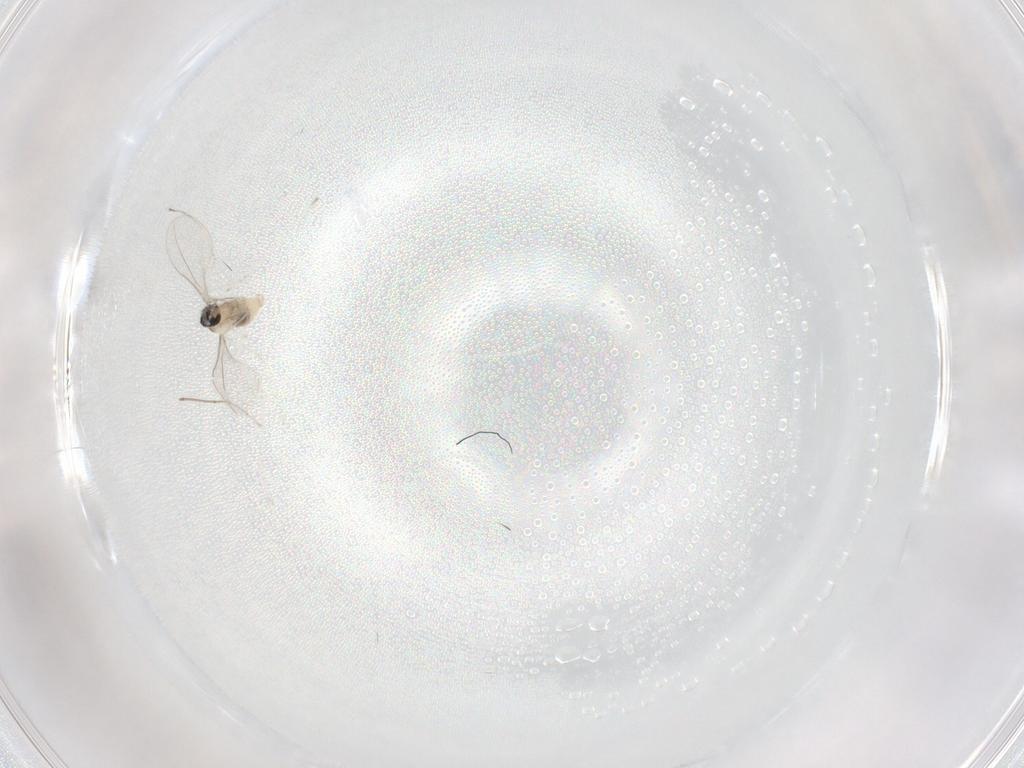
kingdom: Animalia
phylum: Arthropoda
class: Insecta
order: Diptera
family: Cecidomyiidae
